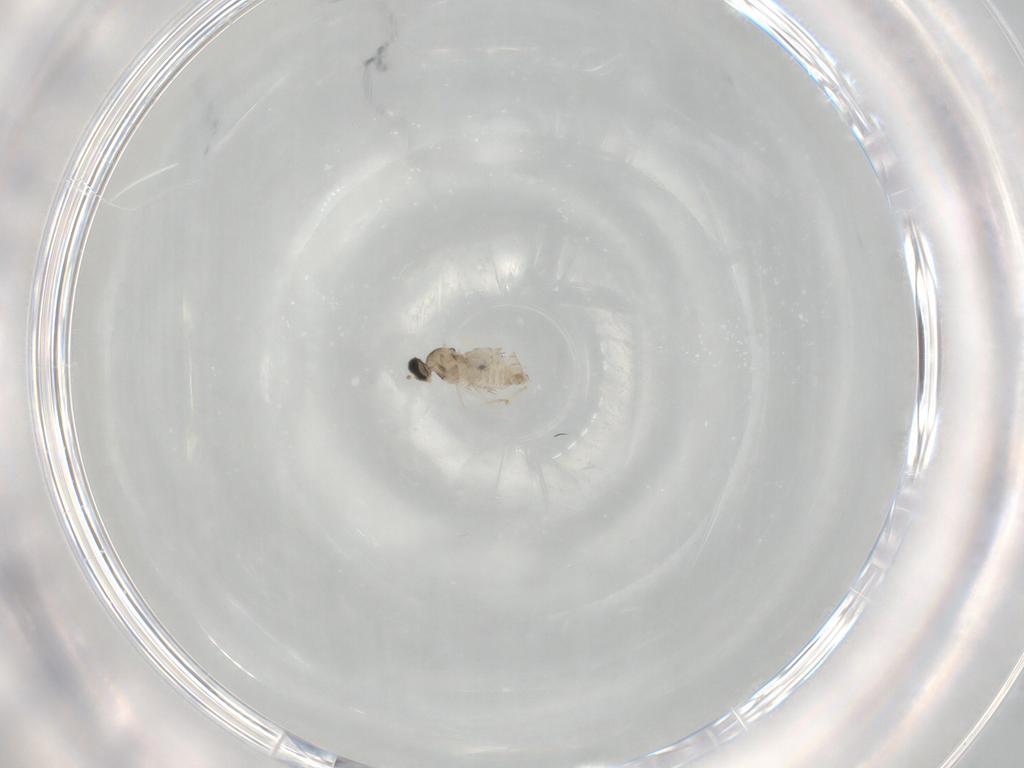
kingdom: Animalia
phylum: Arthropoda
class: Insecta
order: Diptera
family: Cecidomyiidae
